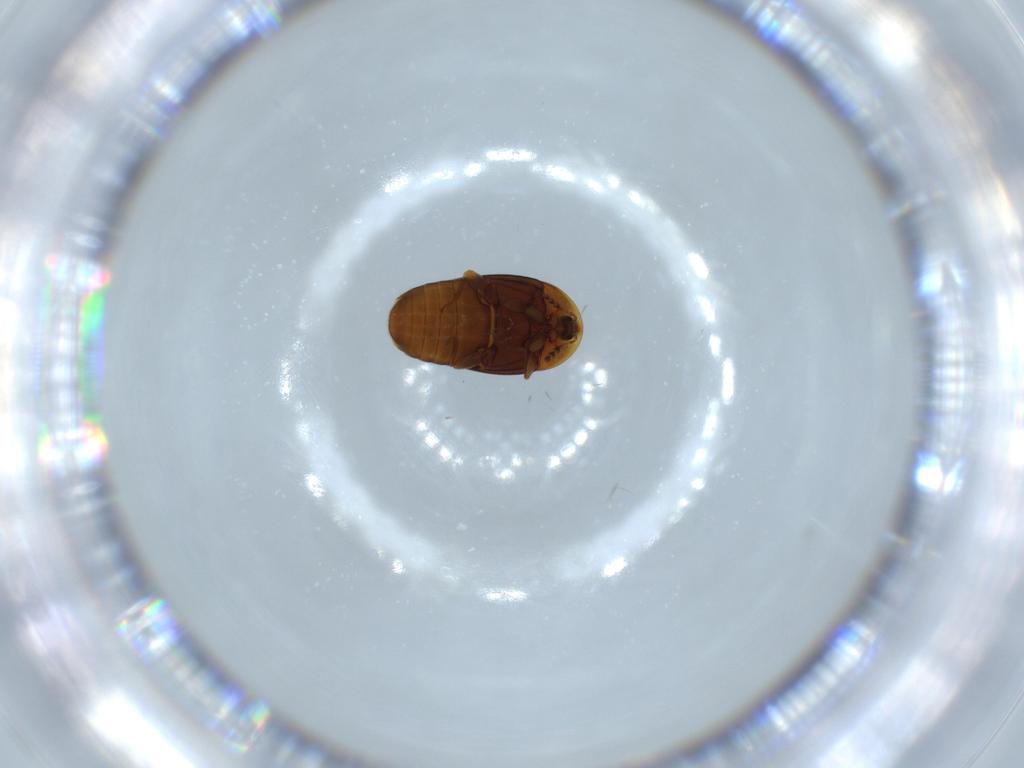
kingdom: Animalia
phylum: Arthropoda
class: Insecta
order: Coleoptera
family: Corylophidae
